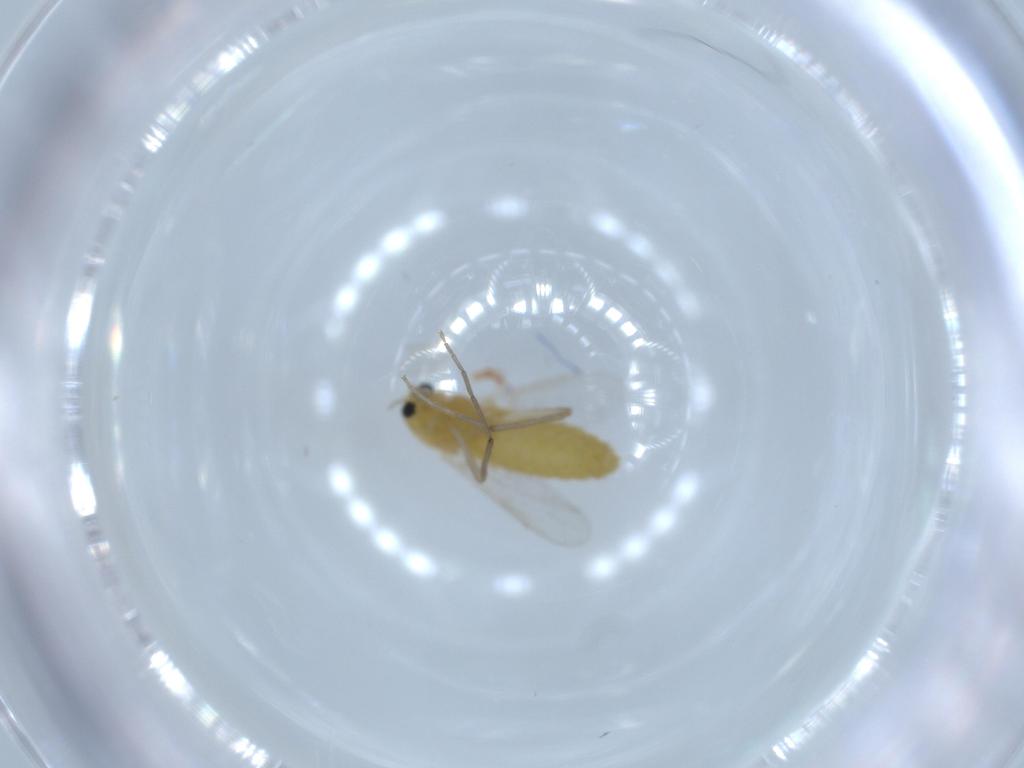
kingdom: Animalia
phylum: Arthropoda
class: Insecta
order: Diptera
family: Chironomidae
